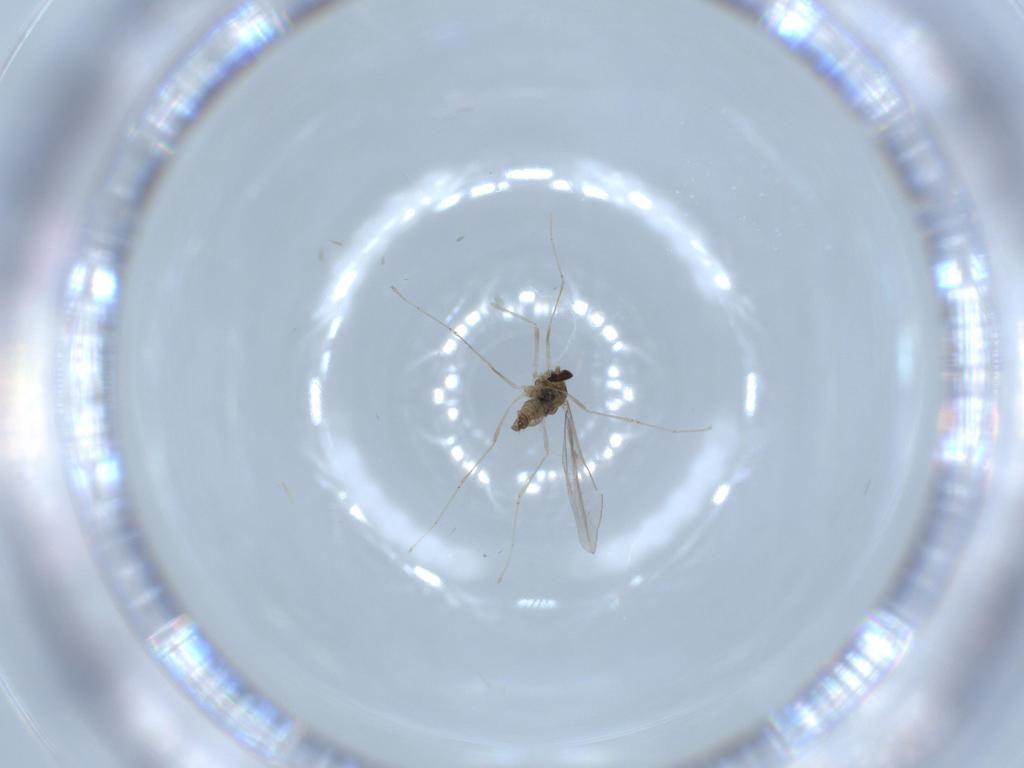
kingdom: Animalia
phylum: Arthropoda
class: Insecta
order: Diptera
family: Cecidomyiidae
